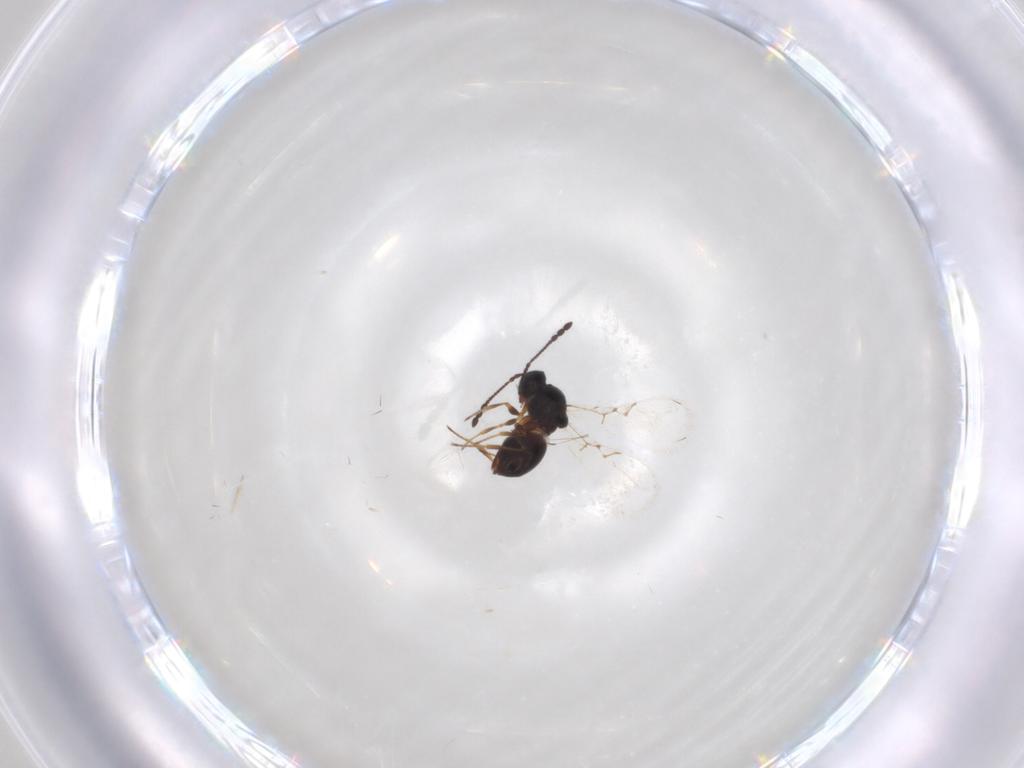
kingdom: Animalia
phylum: Arthropoda
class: Insecta
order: Hymenoptera
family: Figitidae
